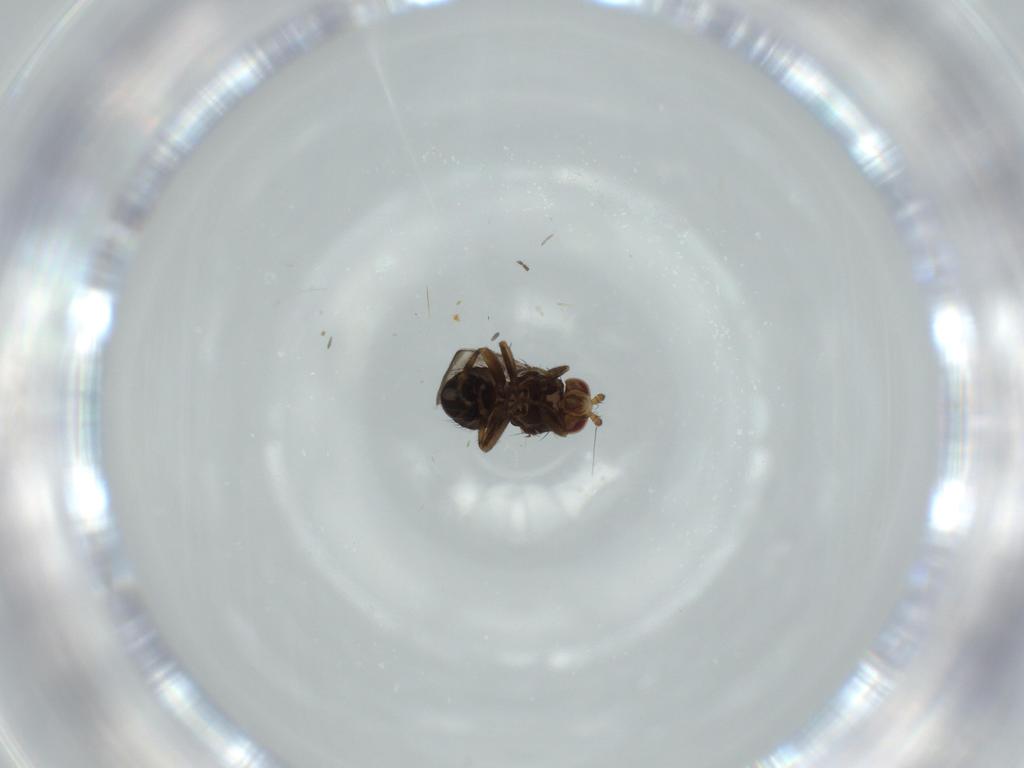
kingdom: Animalia
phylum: Arthropoda
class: Insecta
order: Diptera
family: Sphaeroceridae
